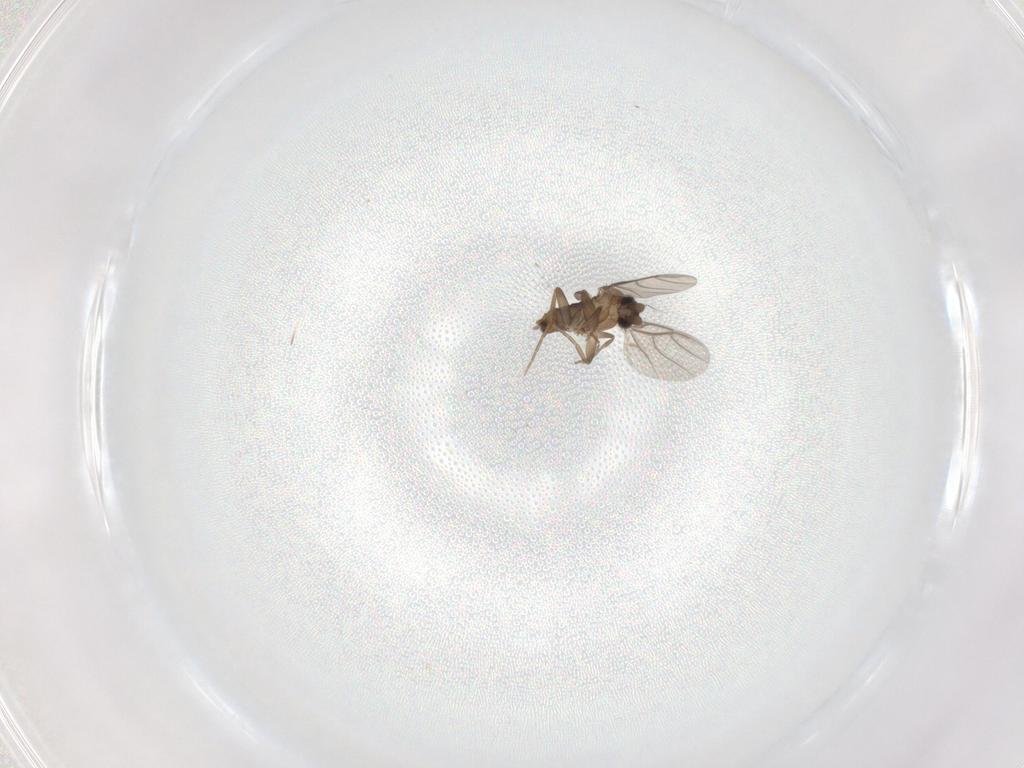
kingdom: Animalia
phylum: Arthropoda
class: Insecta
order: Diptera
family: Phoridae
